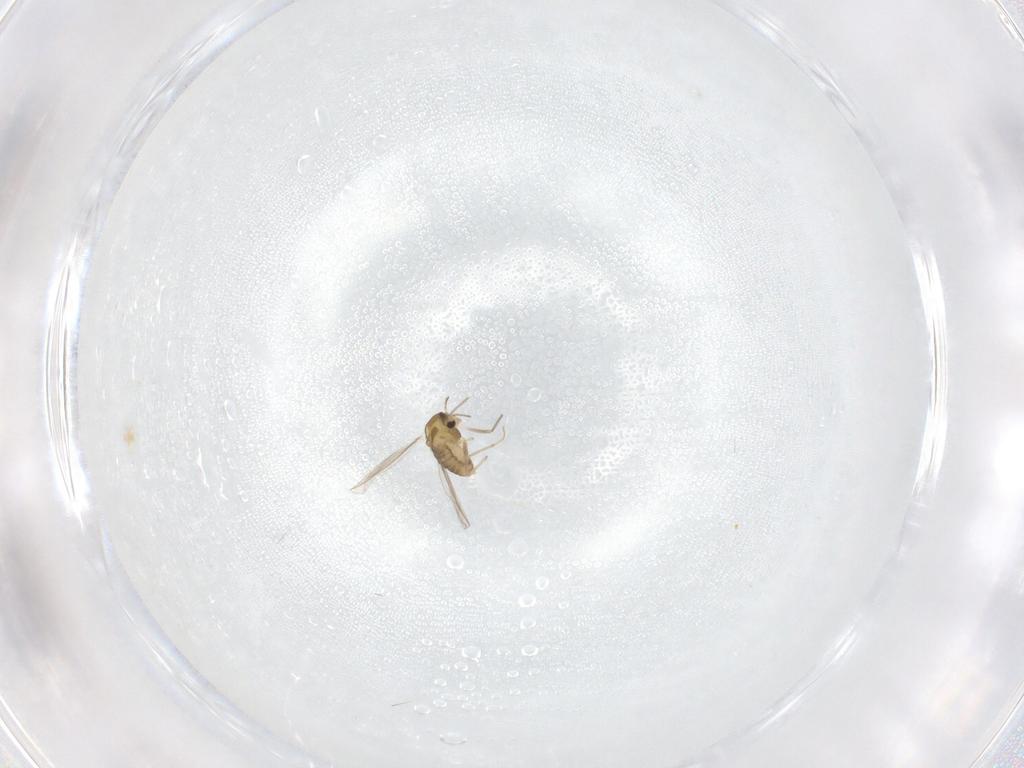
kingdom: Animalia
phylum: Arthropoda
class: Insecta
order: Diptera
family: Chironomidae
